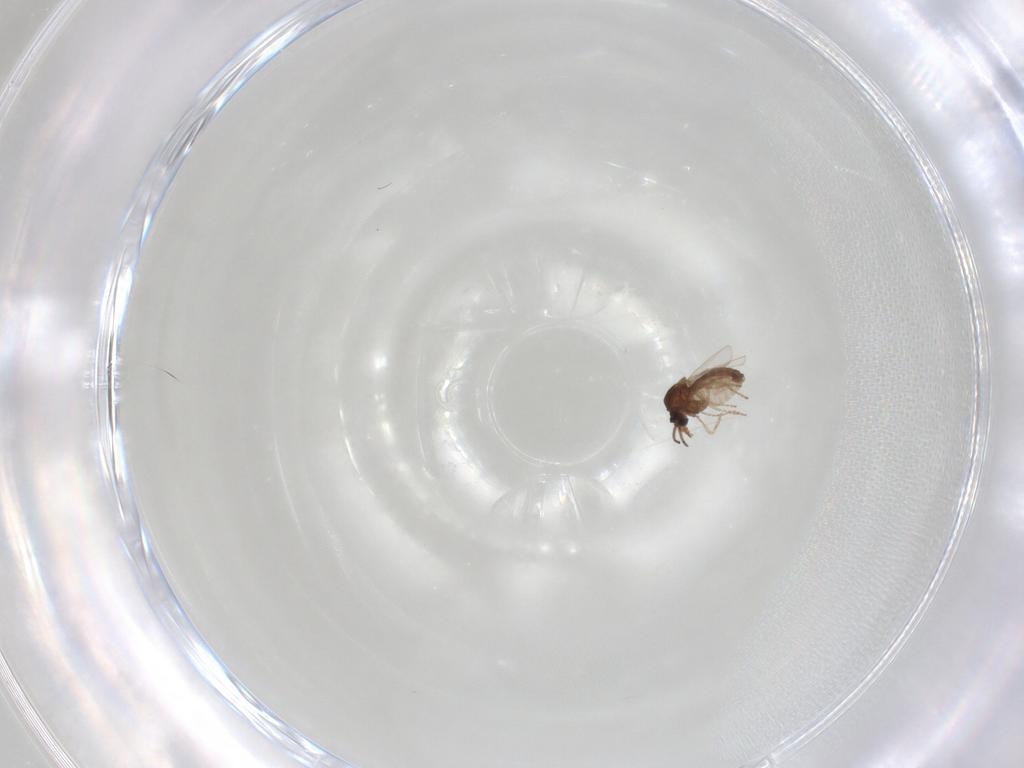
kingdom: Animalia
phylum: Arthropoda
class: Insecta
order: Diptera
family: Ceratopogonidae
